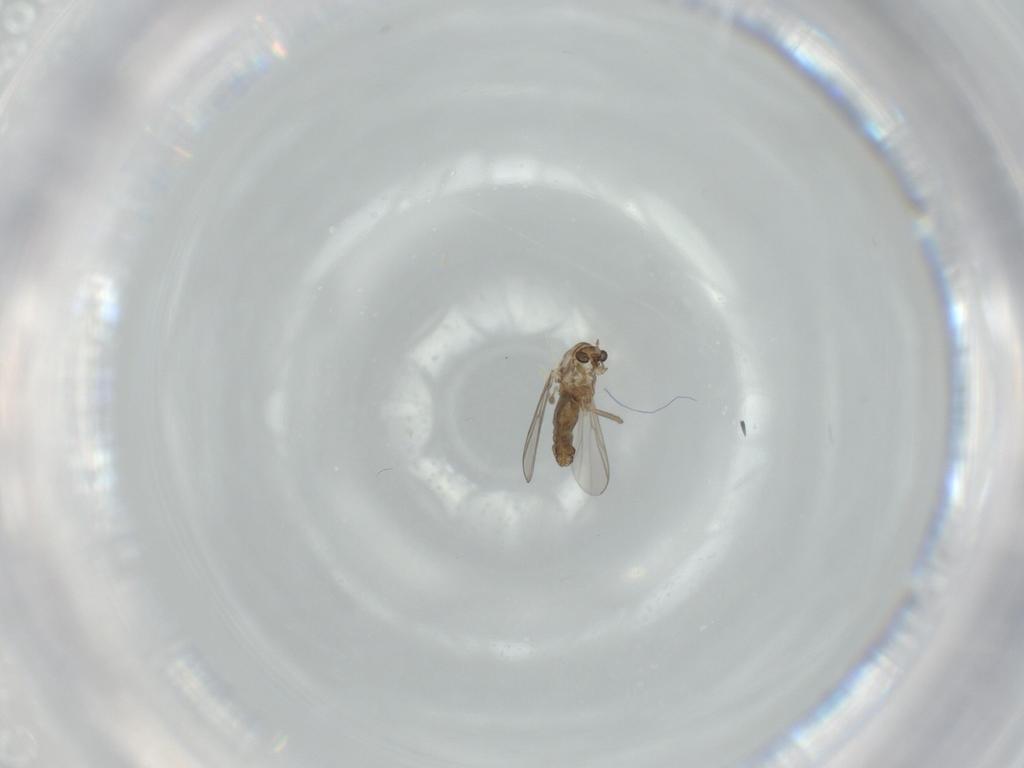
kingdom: Animalia
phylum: Arthropoda
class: Insecta
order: Diptera
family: Chironomidae
